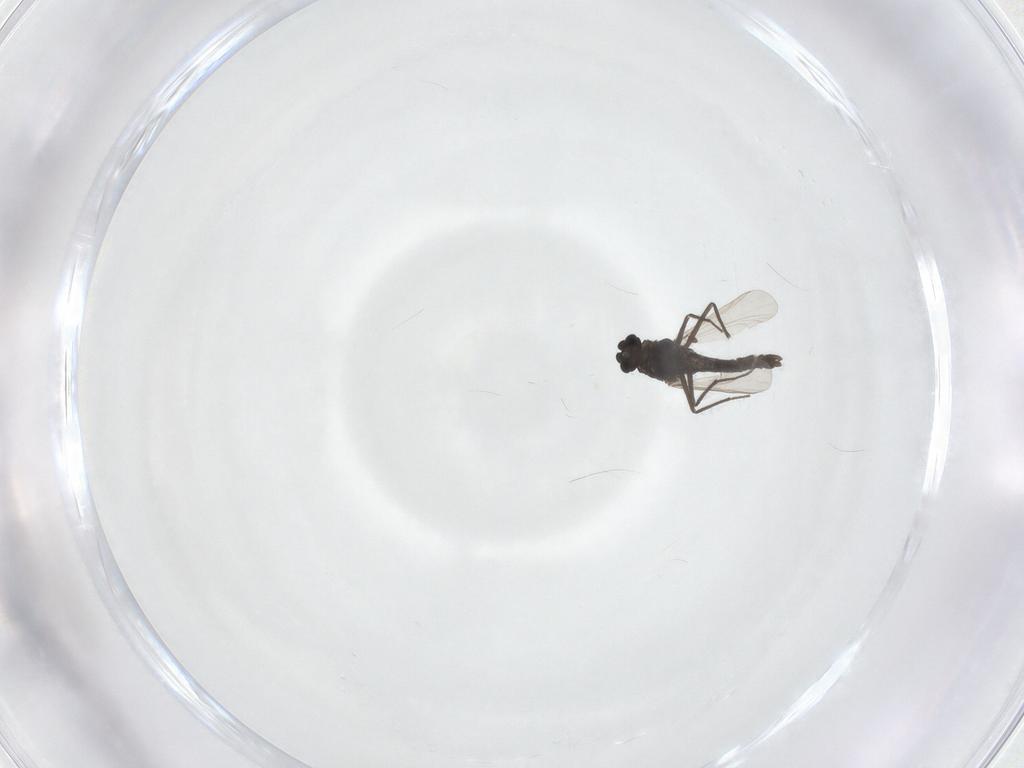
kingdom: Animalia
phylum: Arthropoda
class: Insecta
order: Diptera
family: Chironomidae
